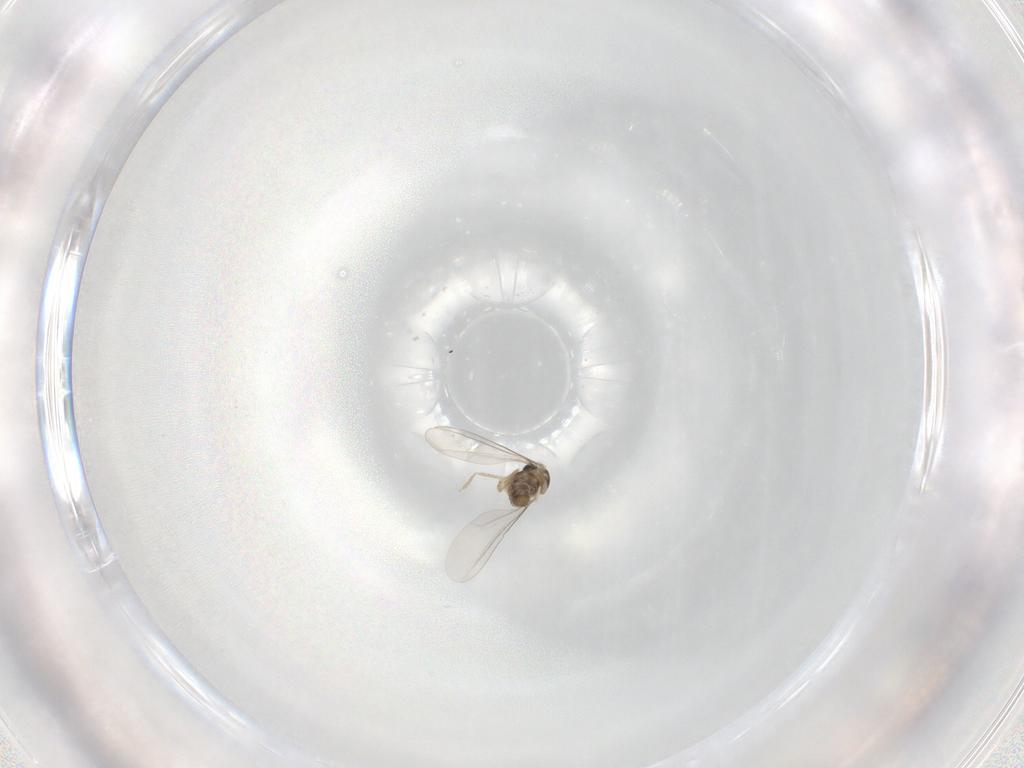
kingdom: Animalia
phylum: Arthropoda
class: Insecta
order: Diptera
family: Cecidomyiidae
